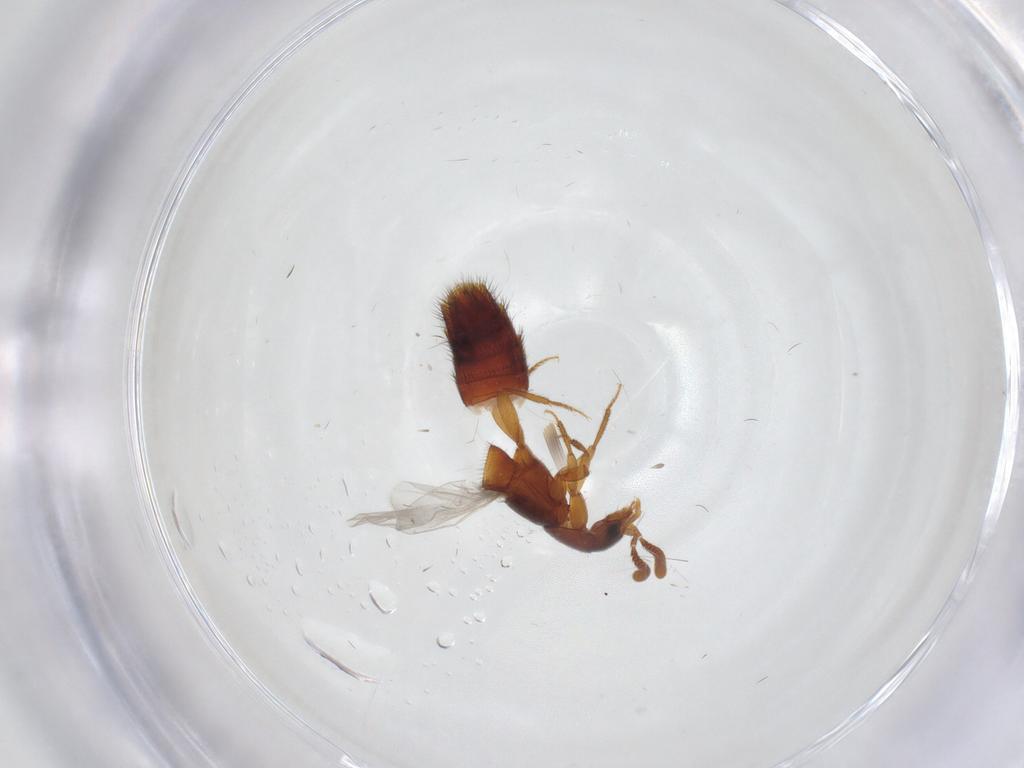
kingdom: Animalia
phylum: Arthropoda
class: Insecta
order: Coleoptera
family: Staphylinidae
